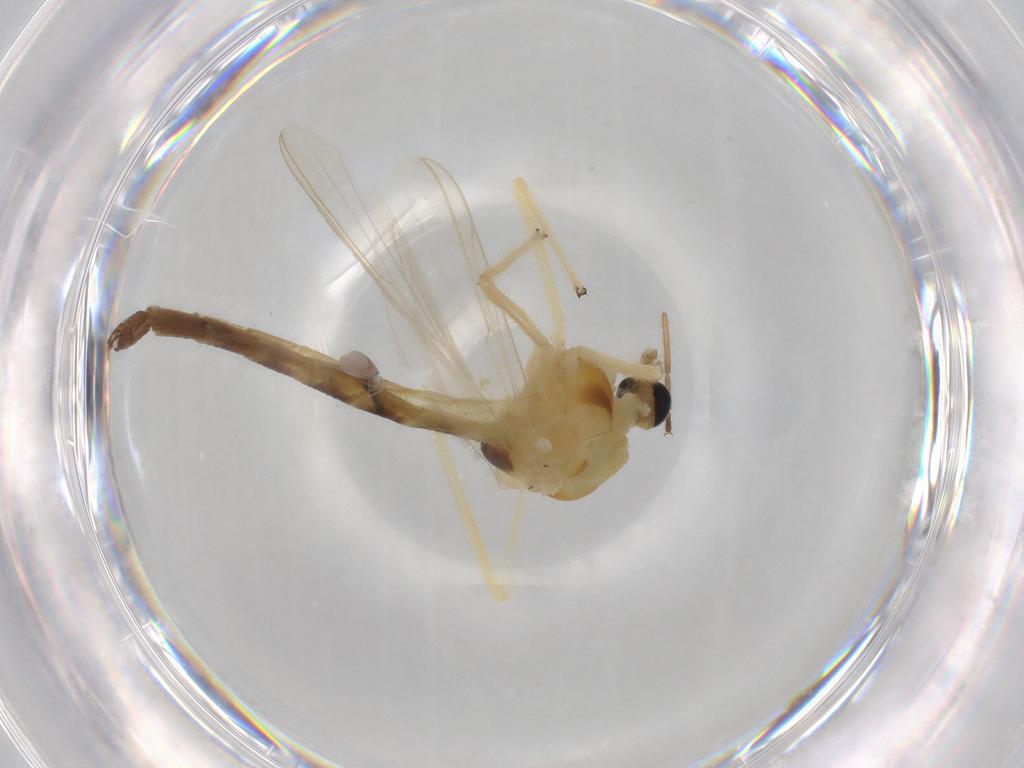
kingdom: Animalia
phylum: Arthropoda
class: Insecta
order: Diptera
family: Chironomidae
